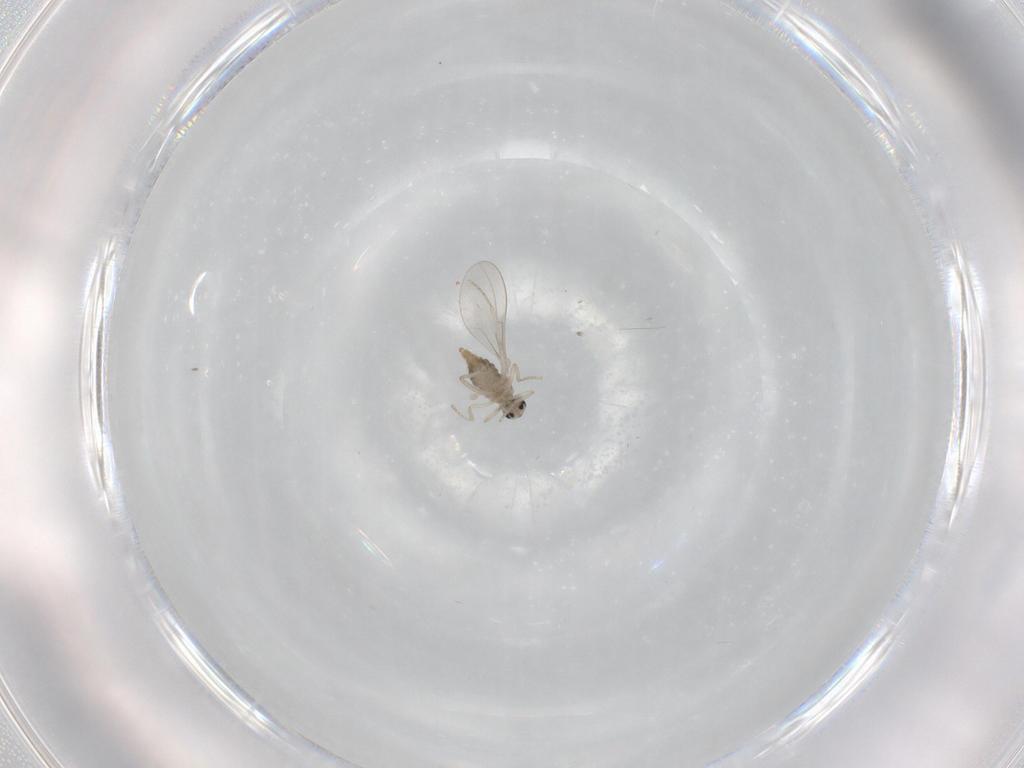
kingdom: Animalia
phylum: Arthropoda
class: Insecta
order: Diptera
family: Cecidomyiidae
